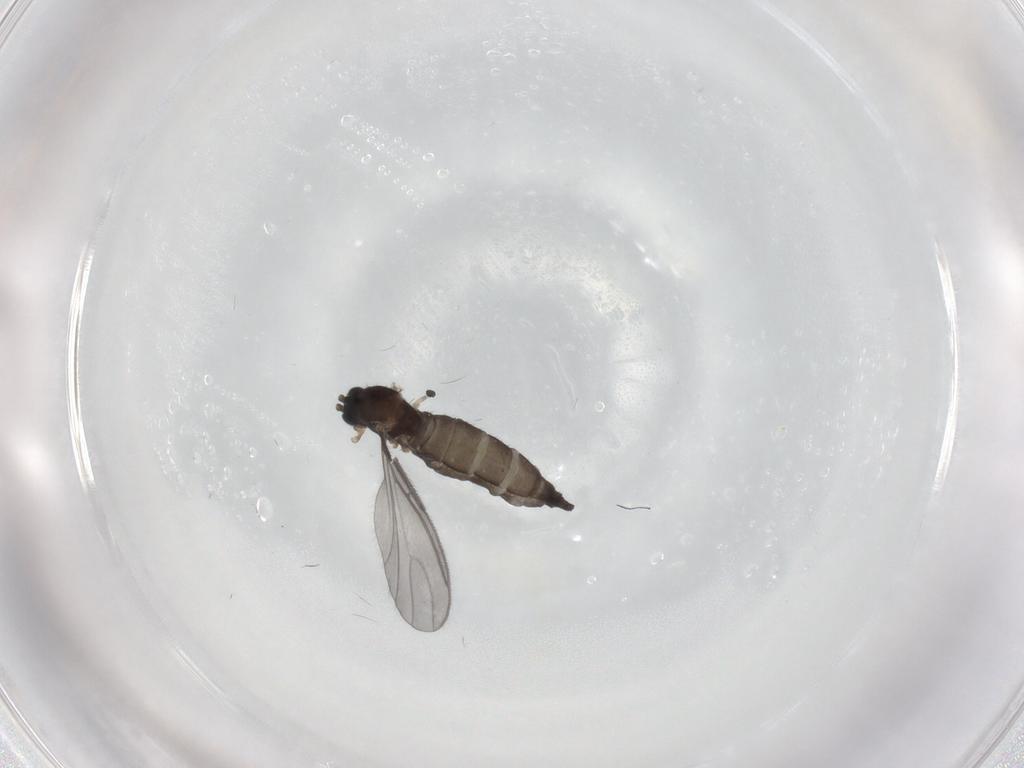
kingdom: Animalia
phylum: Arthropoda
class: Insecta
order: Diptera
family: Sciaridae
